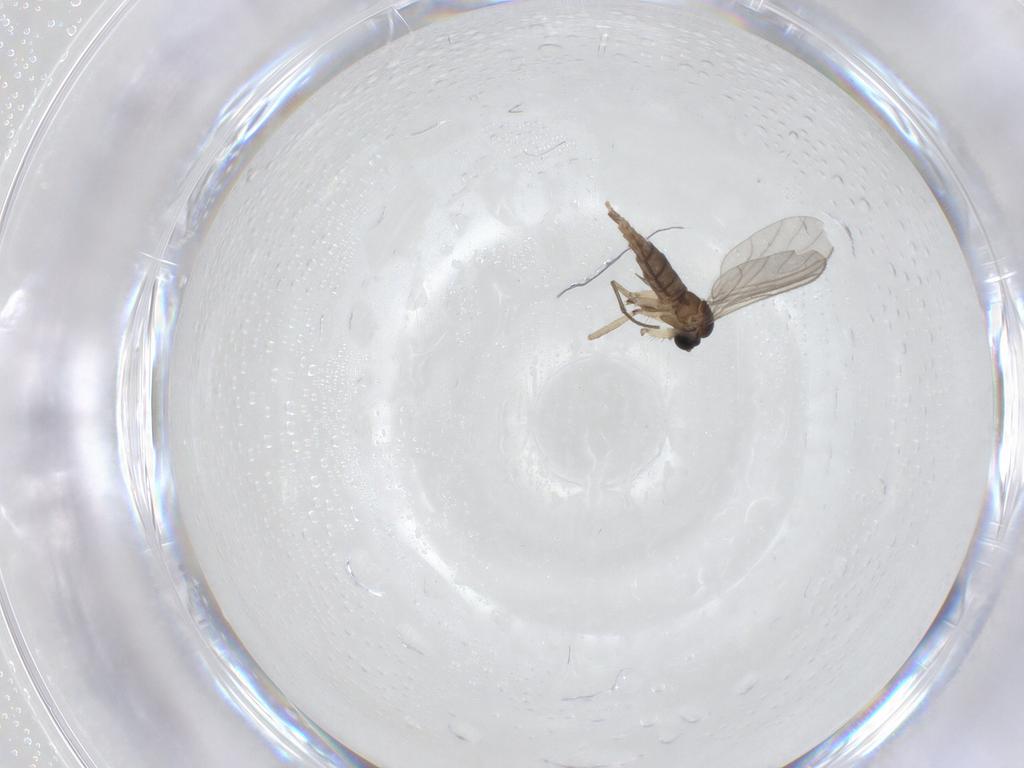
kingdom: Animalia
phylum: Arthropoda
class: Insecta
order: Diptera
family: Sciaridae
